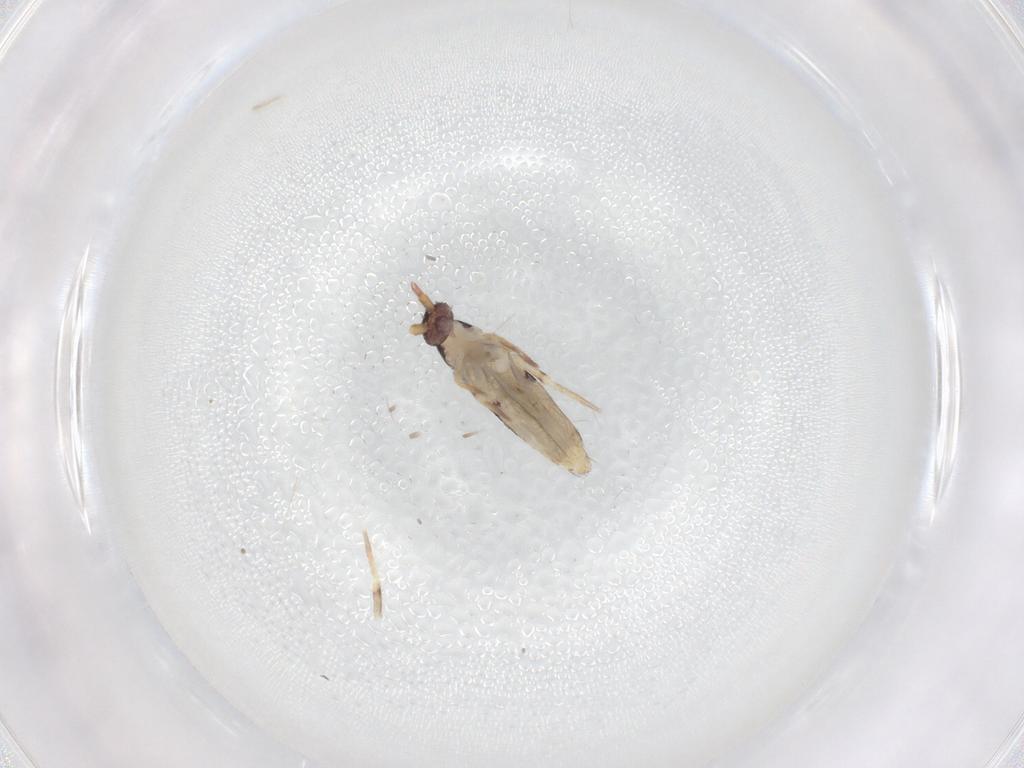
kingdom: Animalia
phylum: Arthropoda
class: Collembola
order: Entomobryomorpha
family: Entomobryidae
